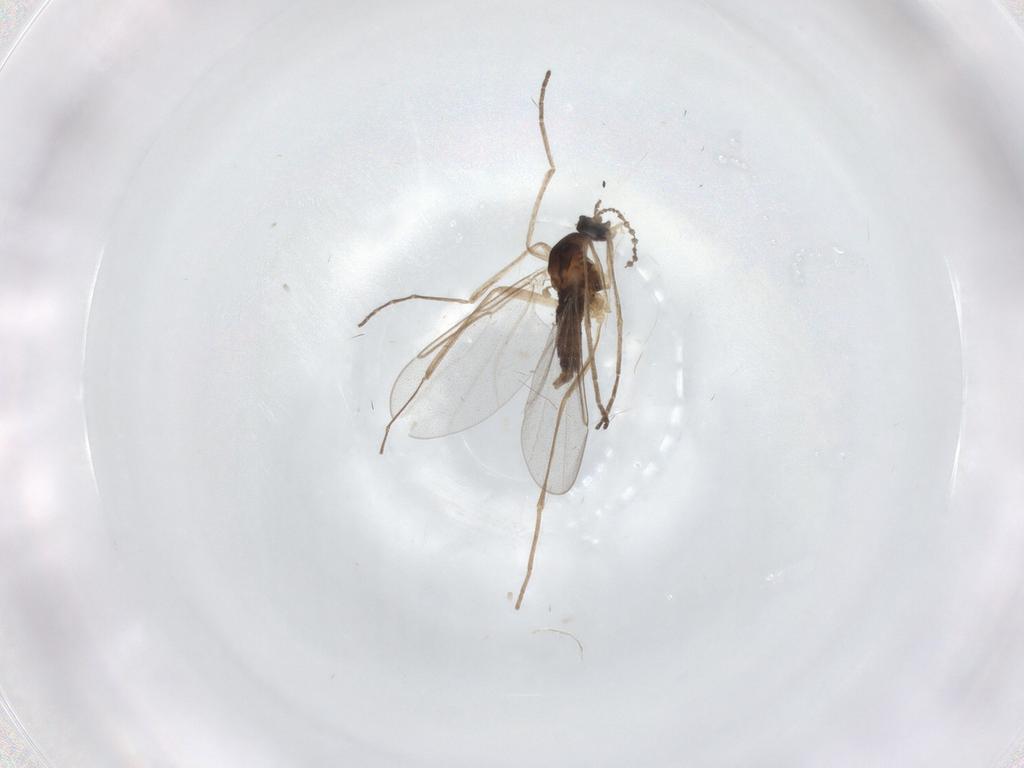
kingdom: Animalia
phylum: Arthropoda
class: Insecta
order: Diptera
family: Cecidomyiidae
